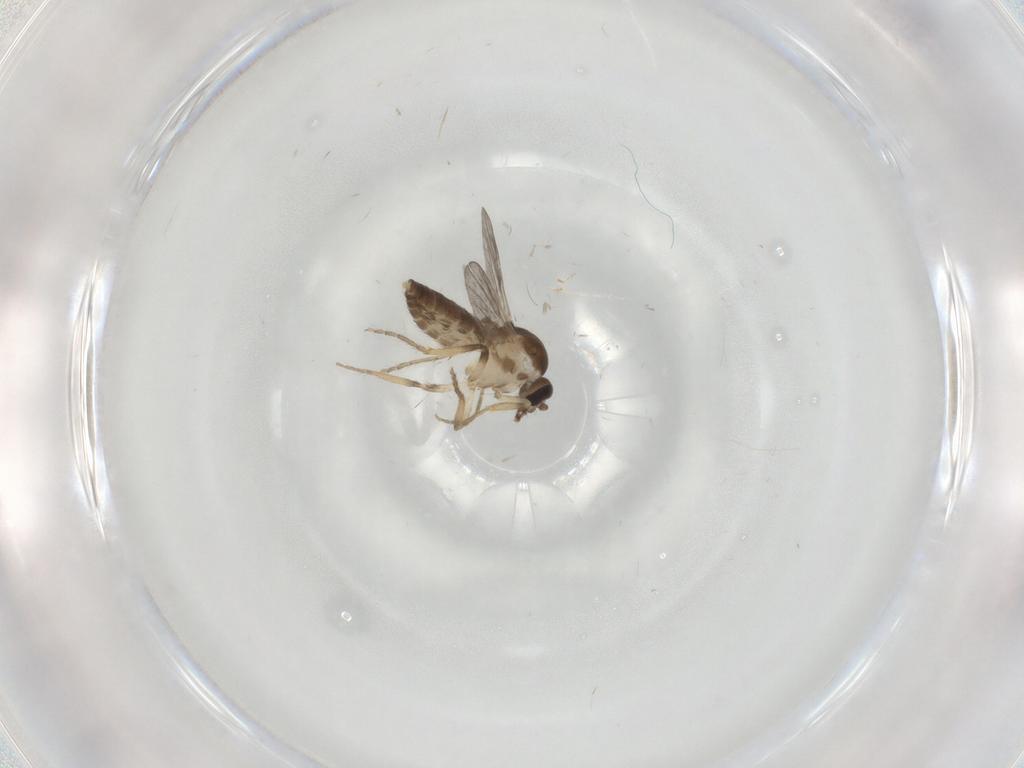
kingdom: Animalia
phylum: Arthropoda
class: Insecta
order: Diptera
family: Ceratopogonidae
